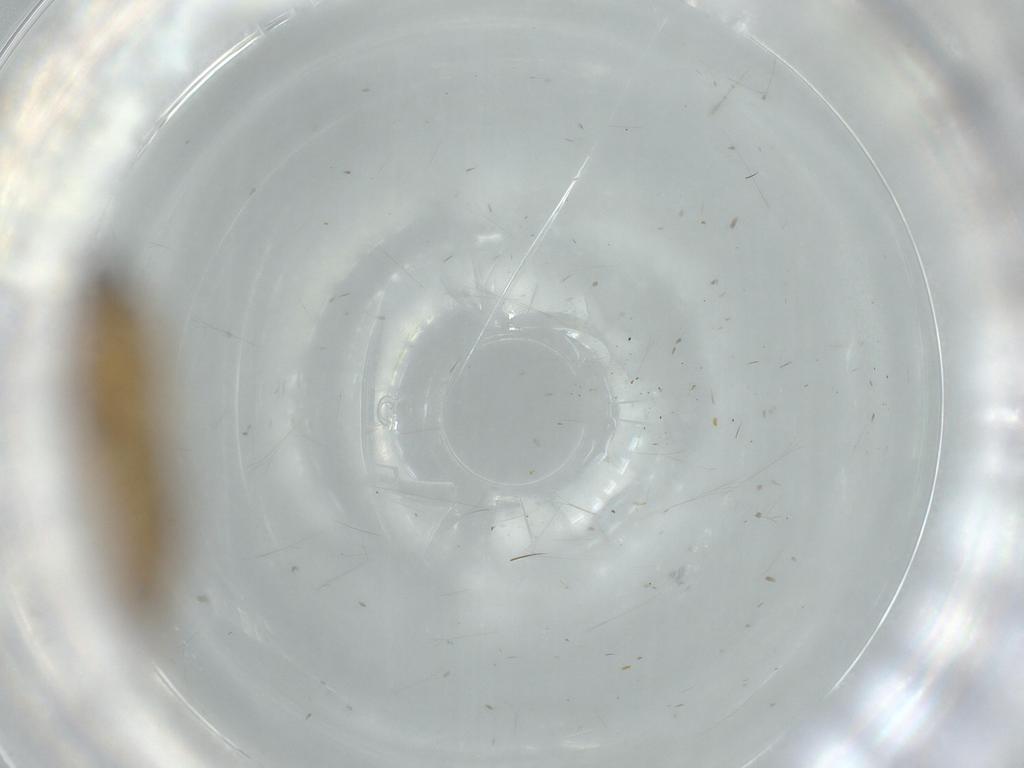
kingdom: Animalia
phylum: Arthropoda
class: Insecta
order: Lepidoptera
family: Tineidae
